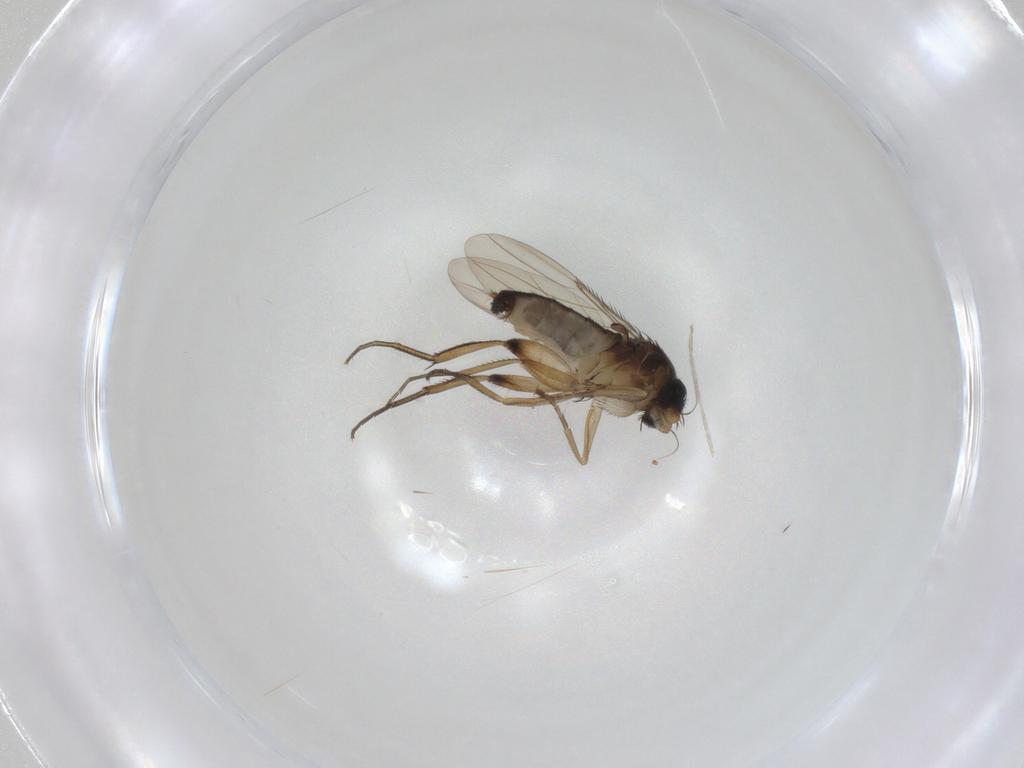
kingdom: Animalia
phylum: Arthropoda
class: Insecta
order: Diptera
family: Phoridae
